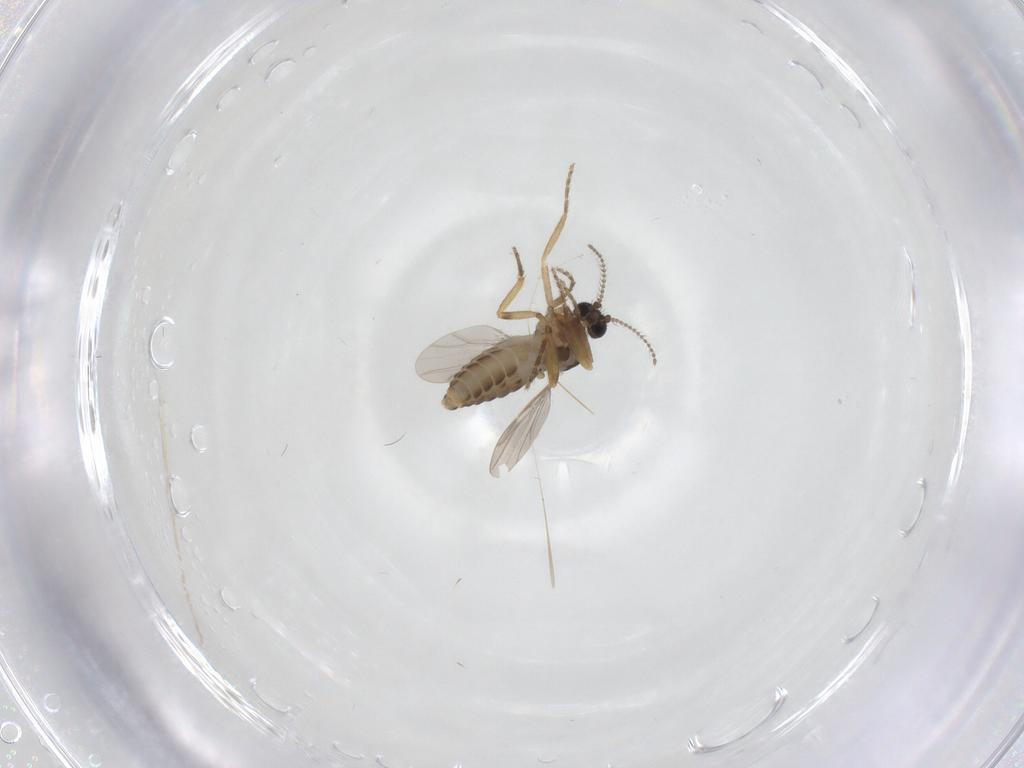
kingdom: Animalia
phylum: Arthropoda
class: Insecta
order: Diptera
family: Ceratopogonidae
